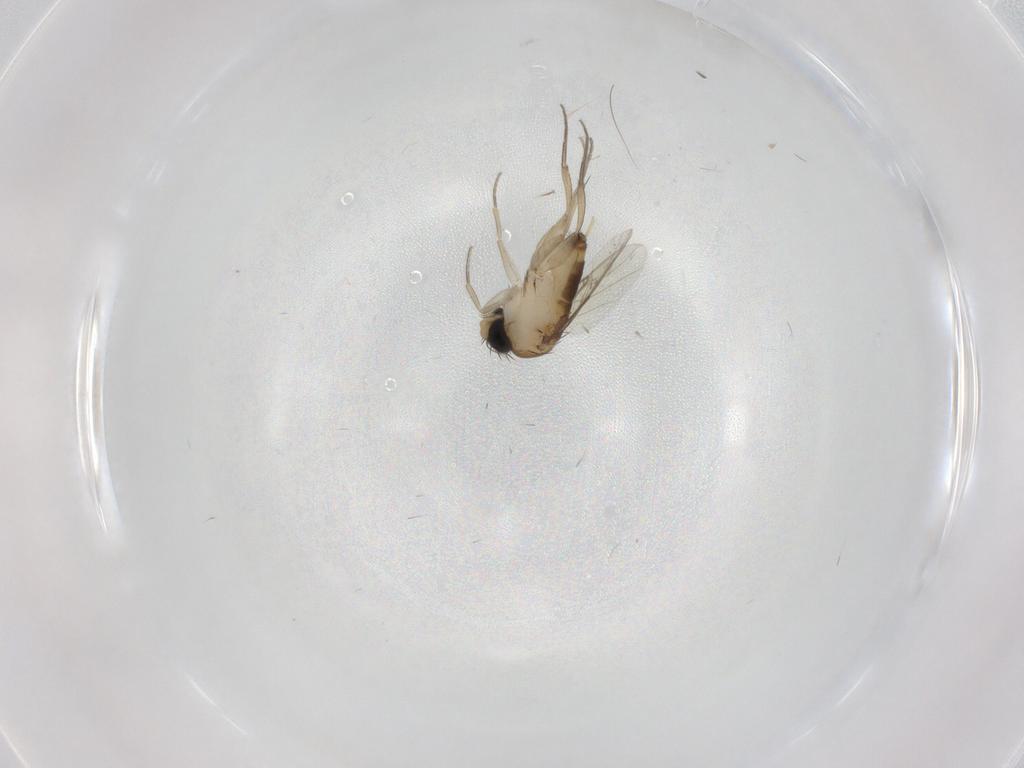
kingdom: Animalia
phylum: Arthropoda
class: Insecta
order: Diptera
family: Phoridae
